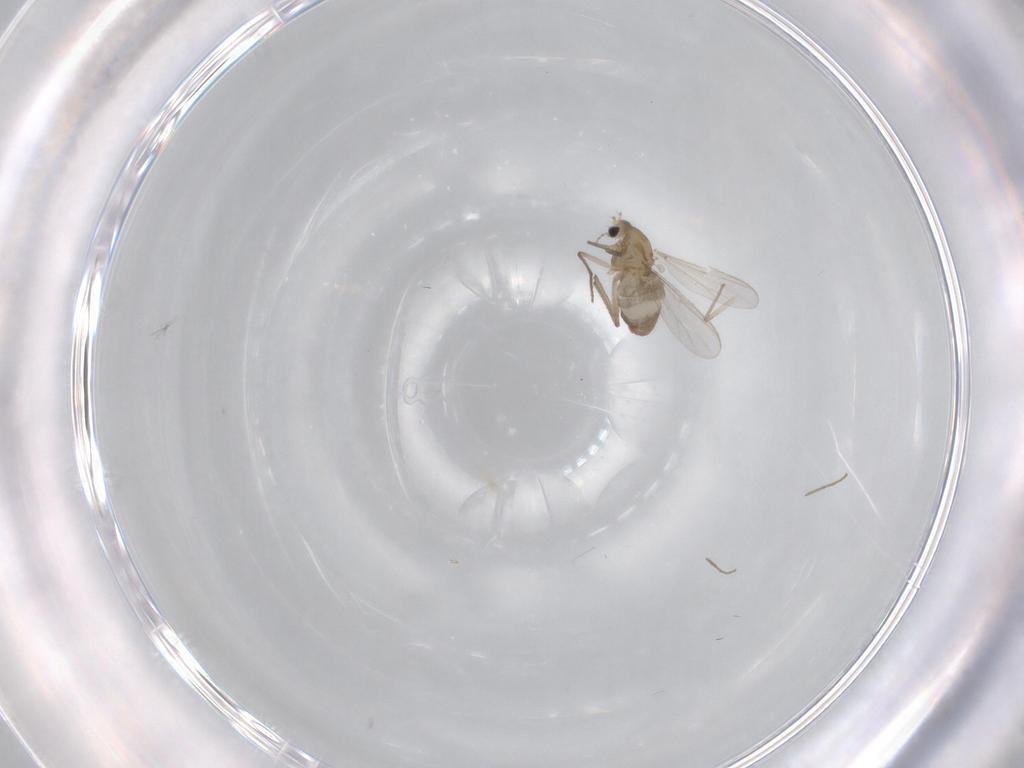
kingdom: Animalia
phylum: Arthropoda
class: Insecta
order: Diptera
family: Chironomidae
